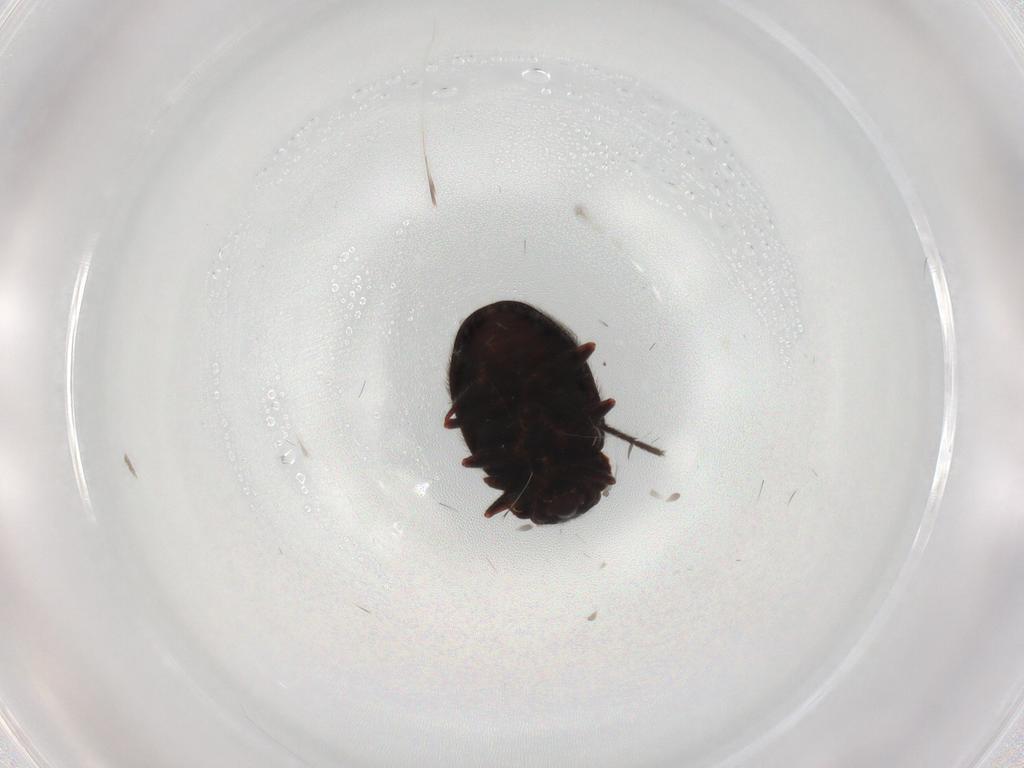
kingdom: Animalia
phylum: Arthropoda
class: Insecta
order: Coleoptera
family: Sphindidae
